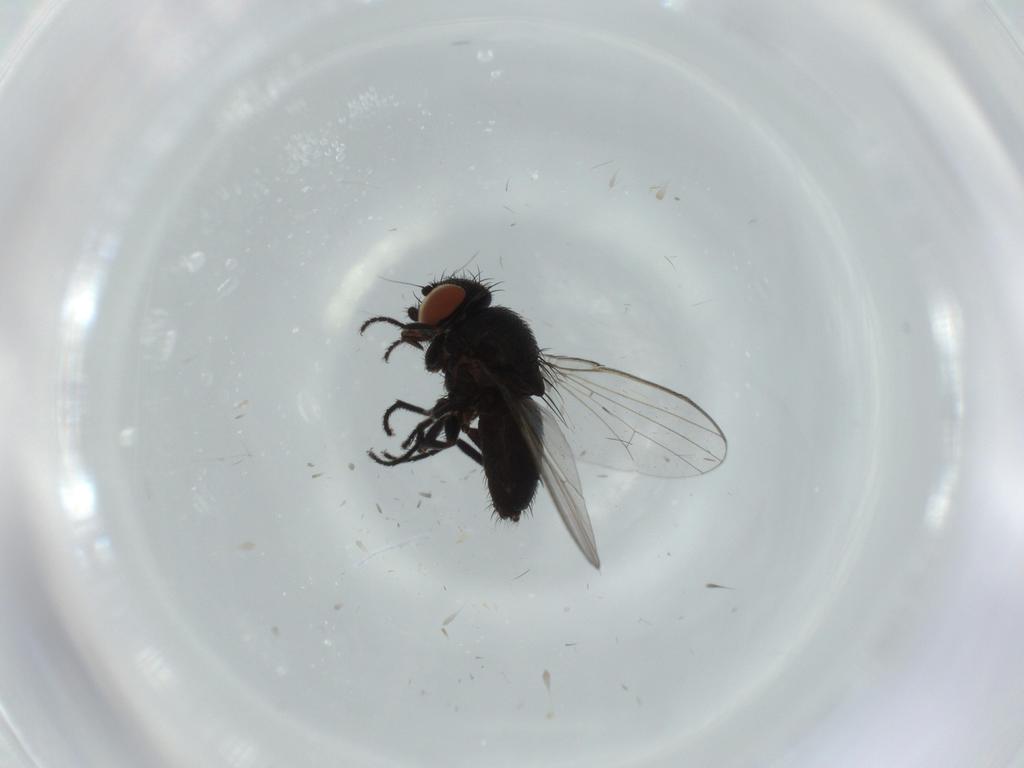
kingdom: Animalia
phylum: Arthropoda
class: Insecta
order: Diptera
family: Milichiidae
